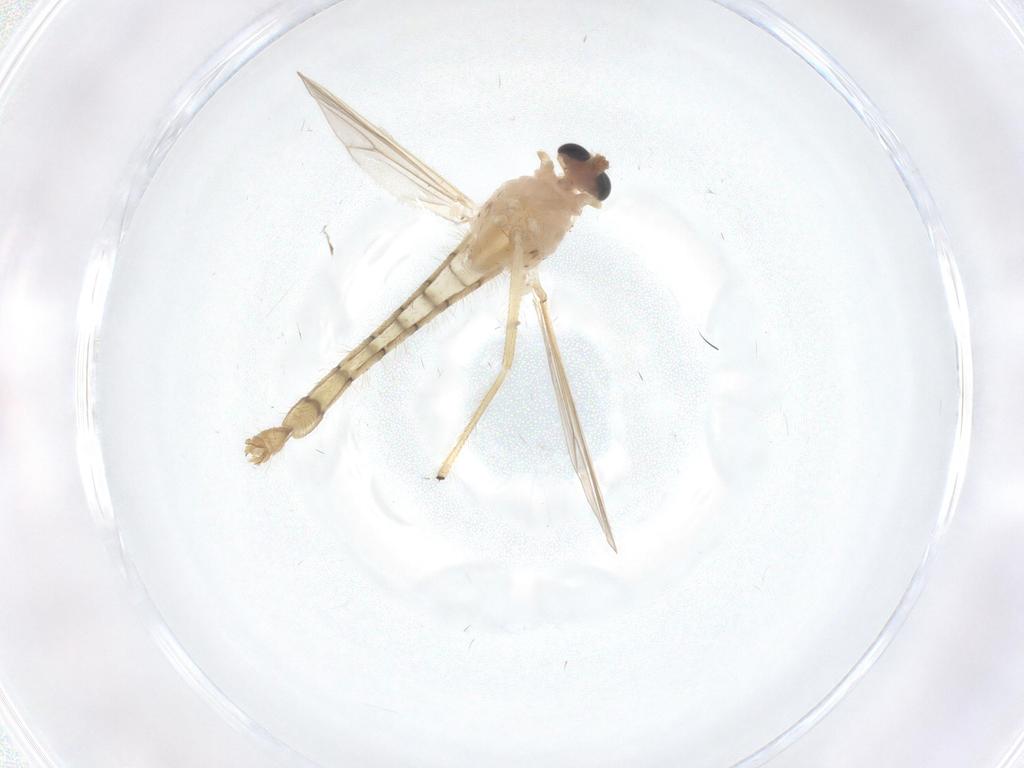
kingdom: Animalia
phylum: Arthropoda
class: Insecta
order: Diptera
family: Chironomidae
